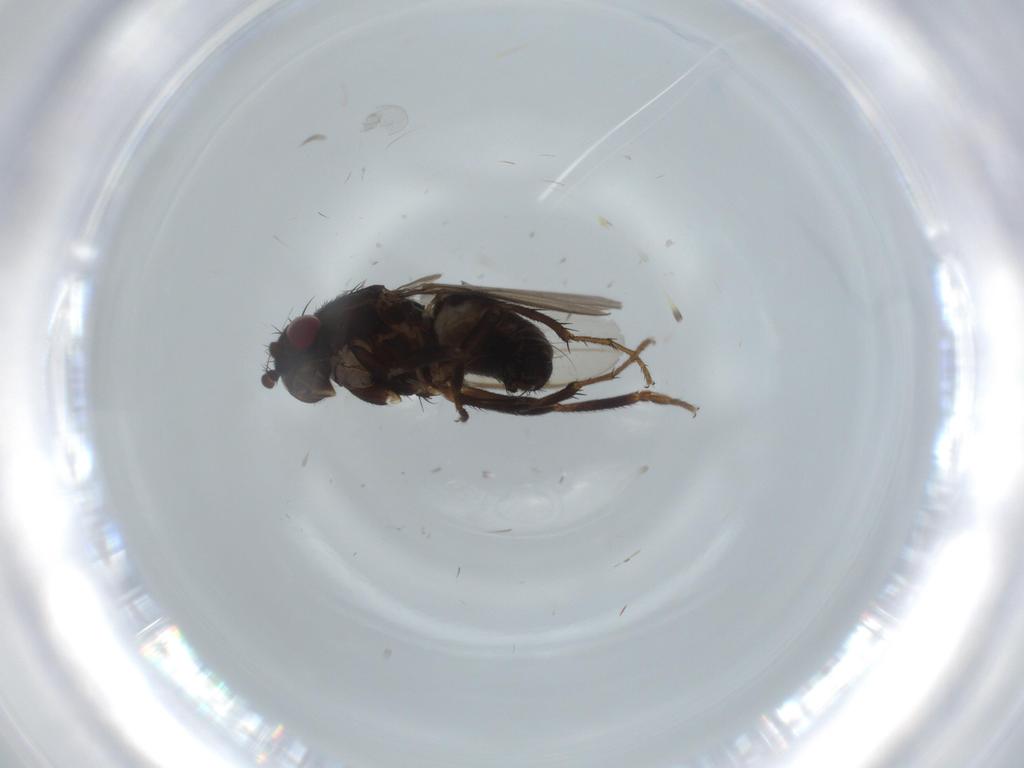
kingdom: Animalia
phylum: Arthropoda
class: Insecta
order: Diptera
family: Sphaeroceridae
